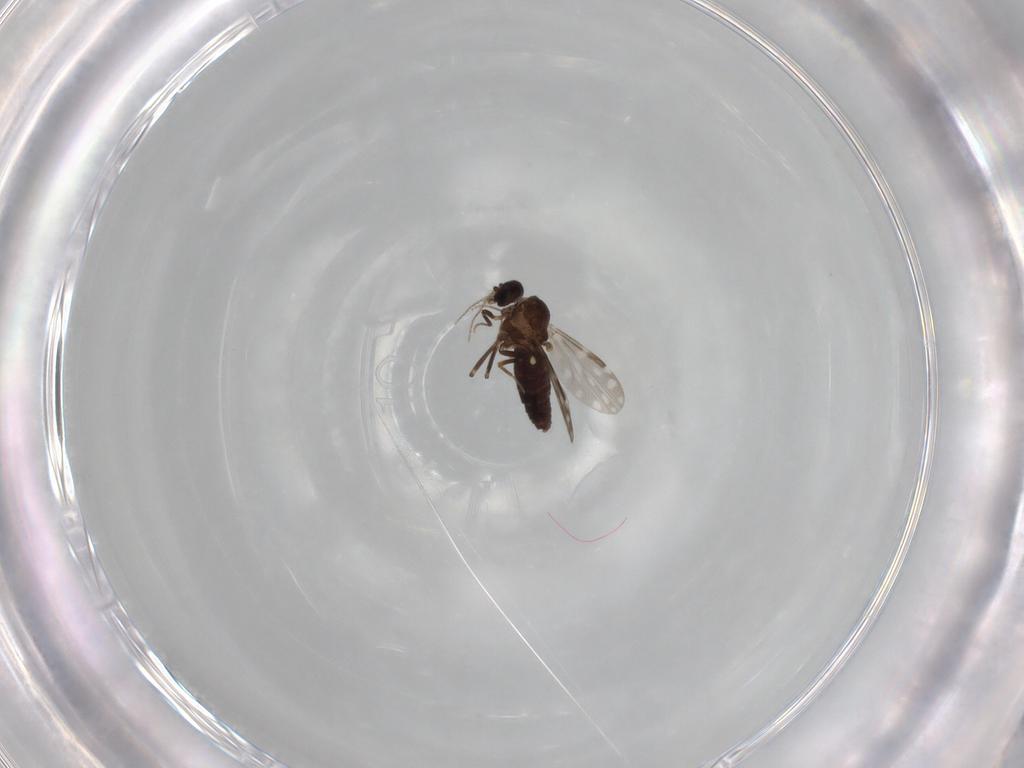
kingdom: Animalia
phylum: Arthropoda
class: Insecta
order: Diptera
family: Ceratopogonidae
